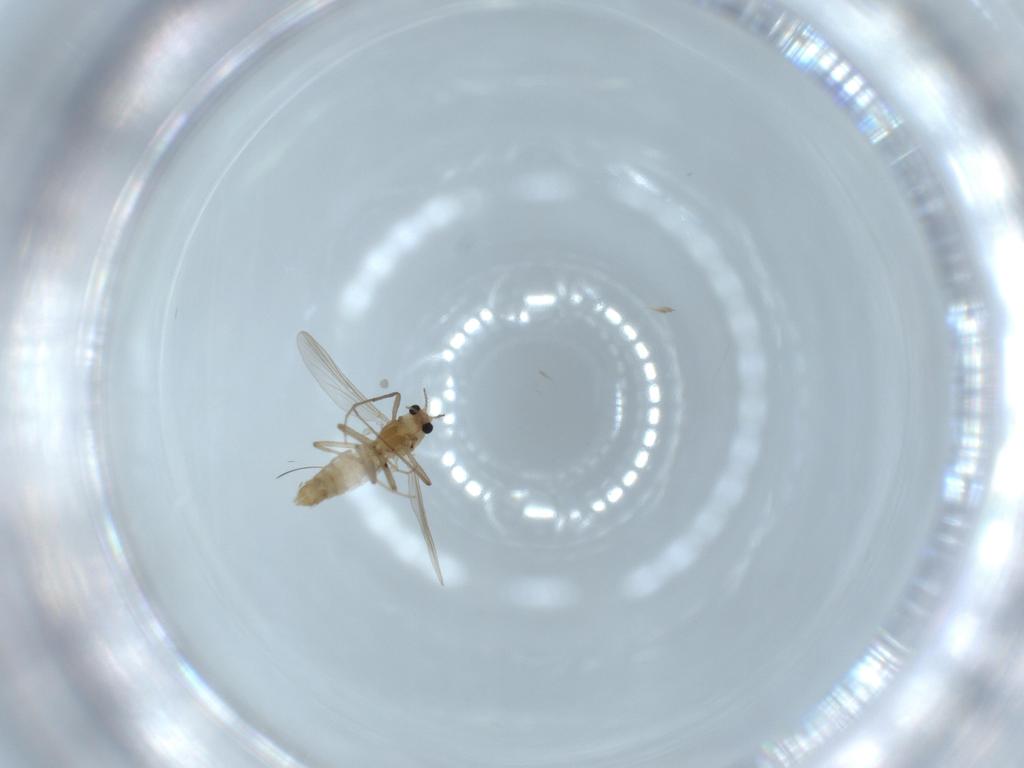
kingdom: Animalia
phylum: Arthropoda
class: Insecta
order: Diptera
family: Chironomidae
